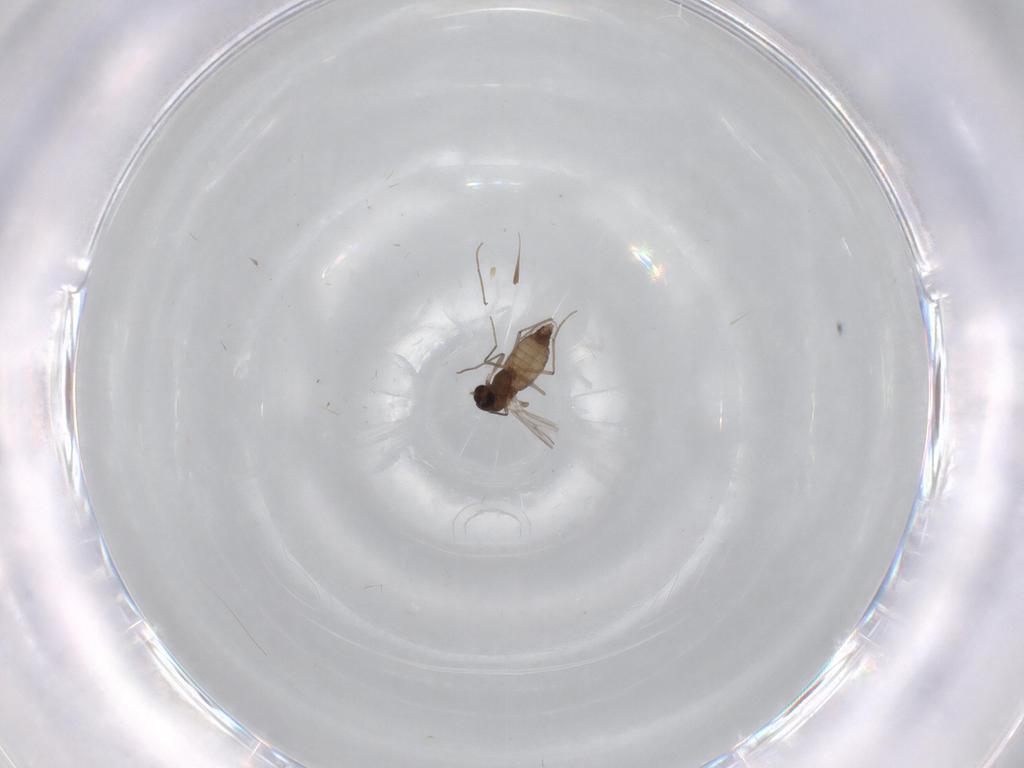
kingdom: Animalia
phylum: Arthropoda
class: Insecta
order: Diptera
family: Chironomidae
